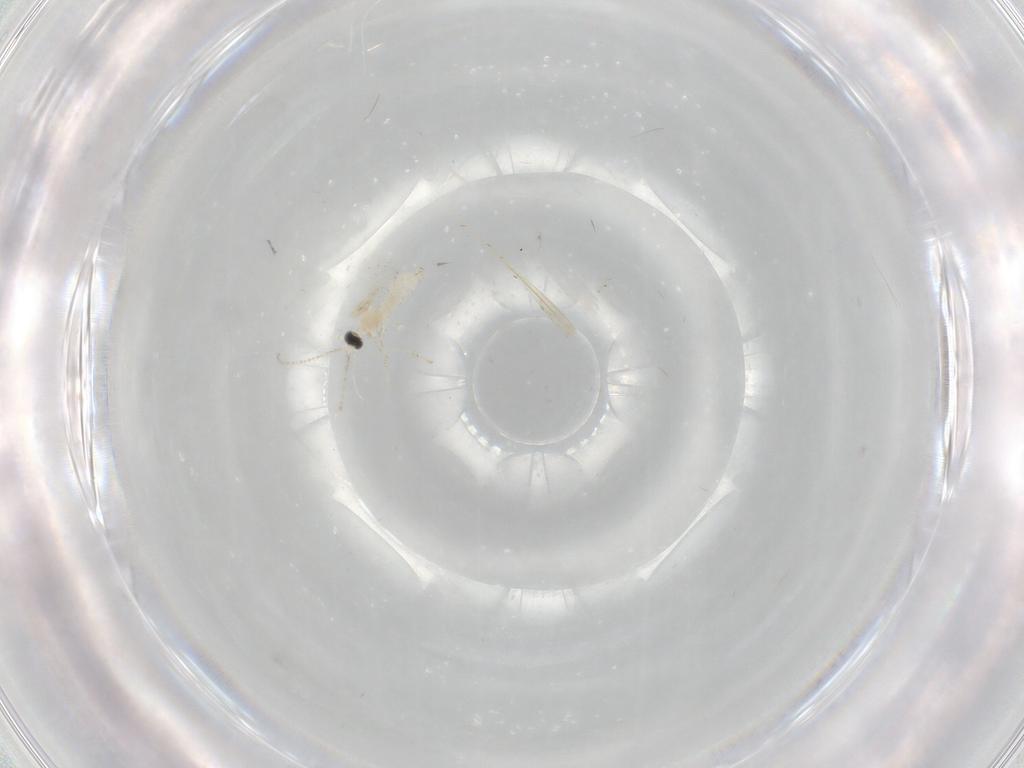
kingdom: Animalia
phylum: Arthropoda
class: Insecta
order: Diptera
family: Cecidomyiidae
